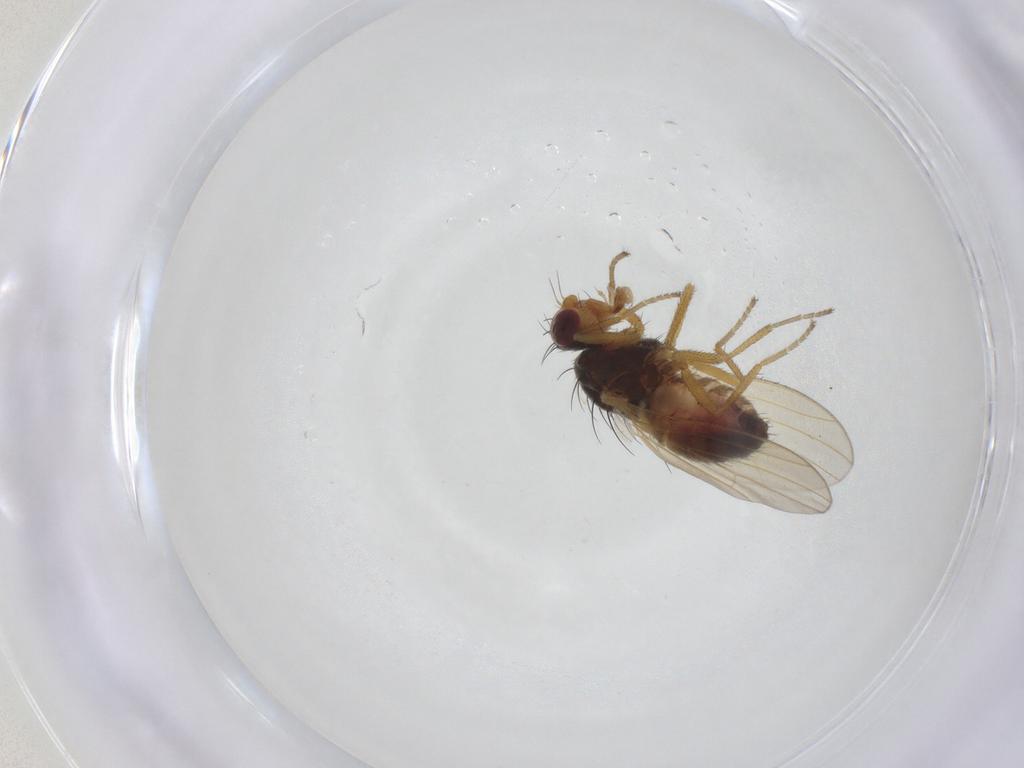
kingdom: Animalia
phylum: Arthropoda
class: Insecta
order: Diptera
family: Heleomyzidae
